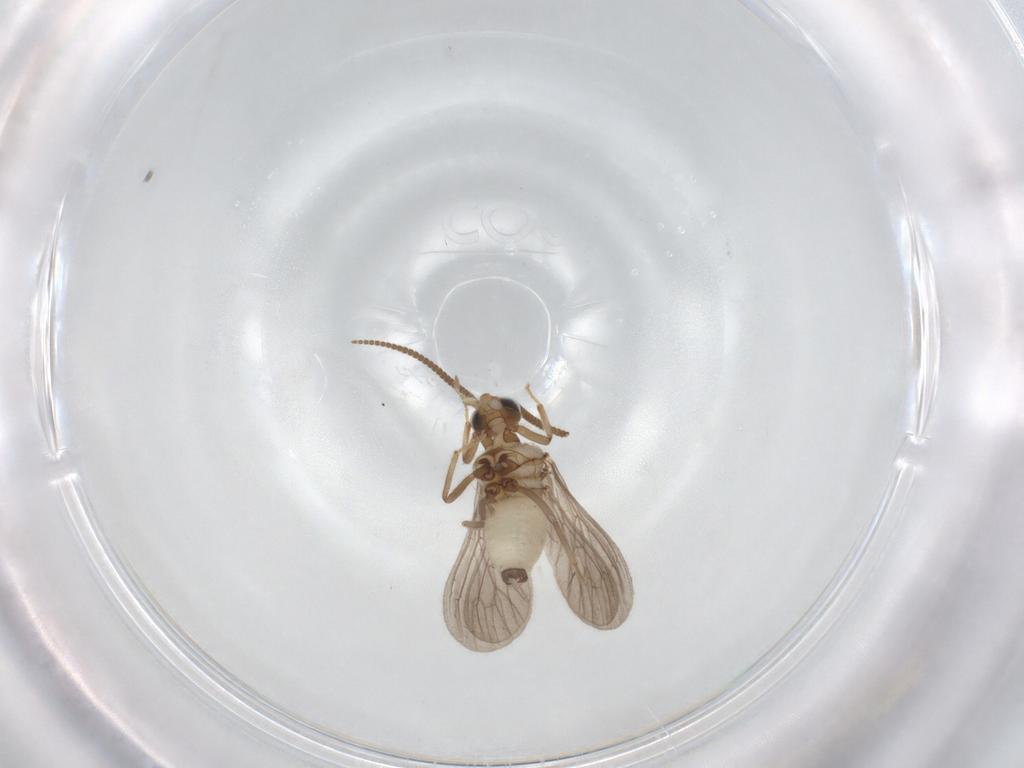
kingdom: Animalia
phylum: Arthropoda
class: Insecta
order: Neuroptera
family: Coniopterygidae
